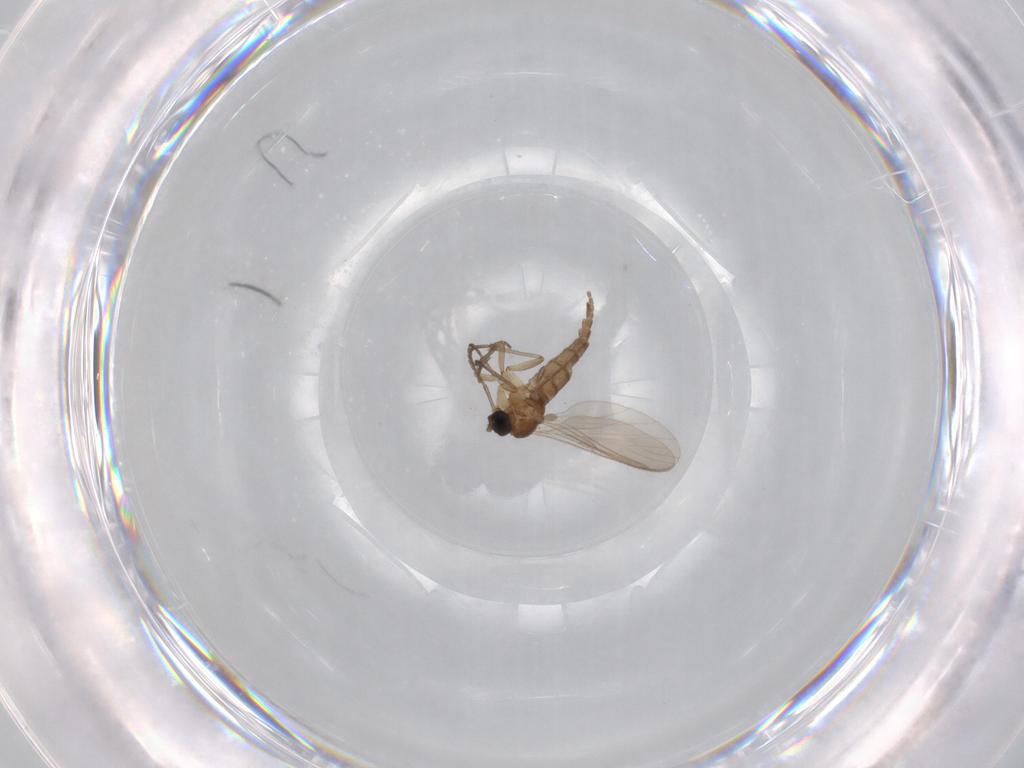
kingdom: Animalia
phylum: Arthropoda
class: Insecta
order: Diptera
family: Sciaridae
